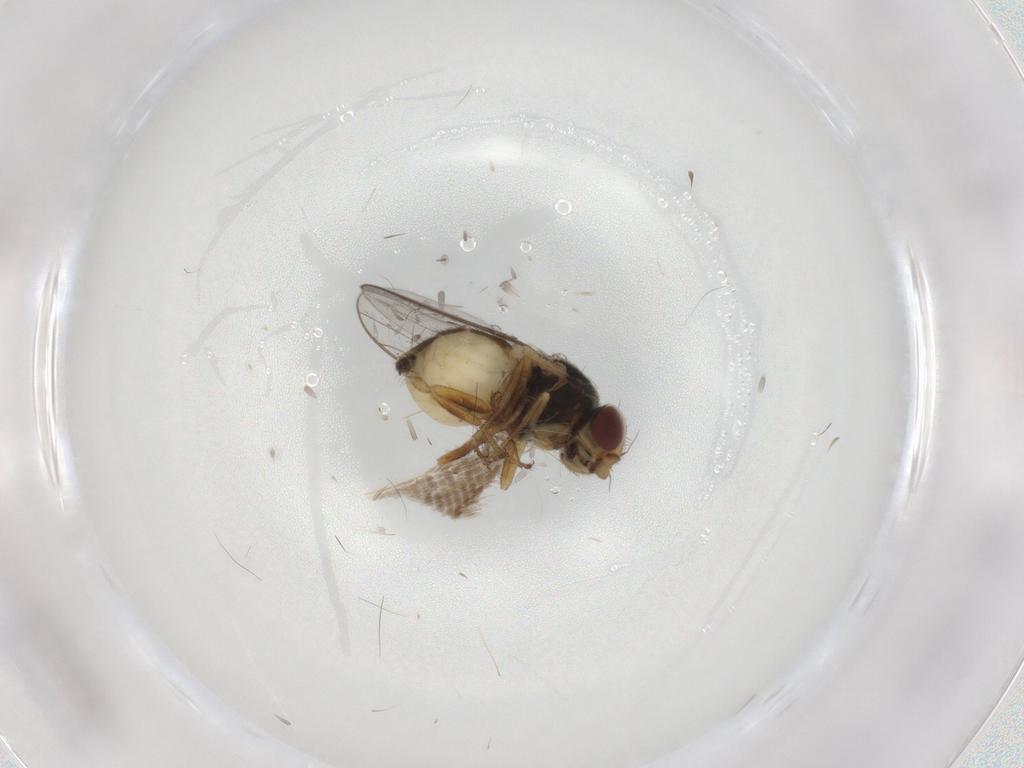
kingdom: Animalia
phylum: Arthropoda
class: Insecta
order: Diptera
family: Chloropidae
